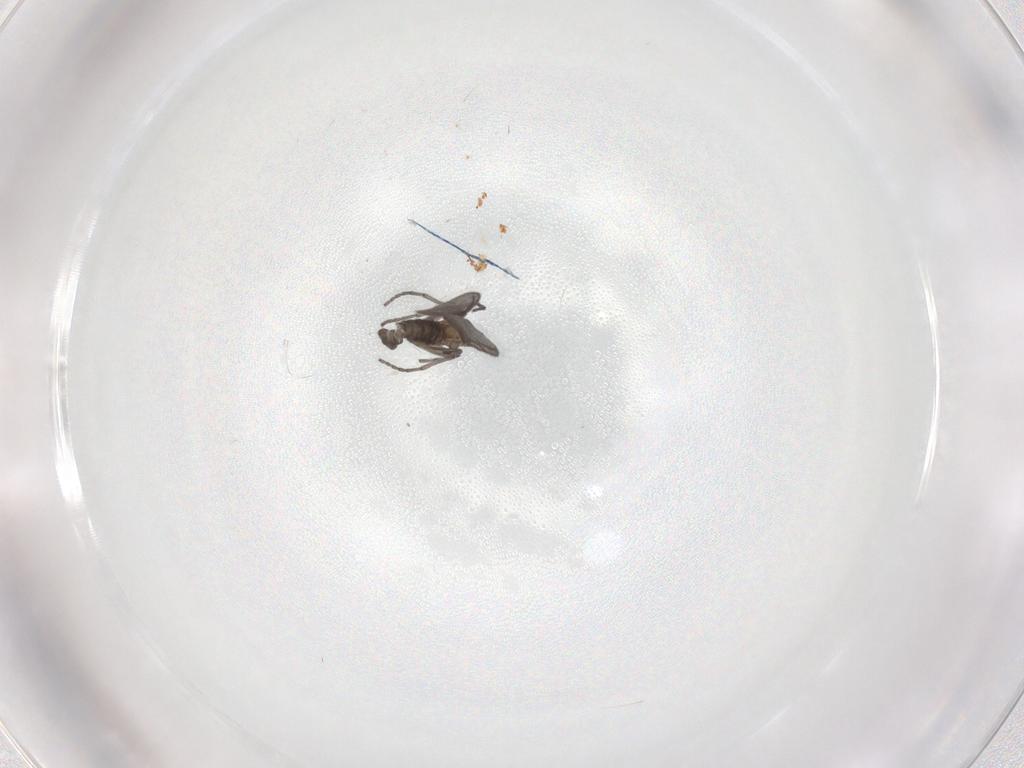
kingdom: Animalia
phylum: Arthropoda
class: Insecta
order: Diptera
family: Sciaridae
